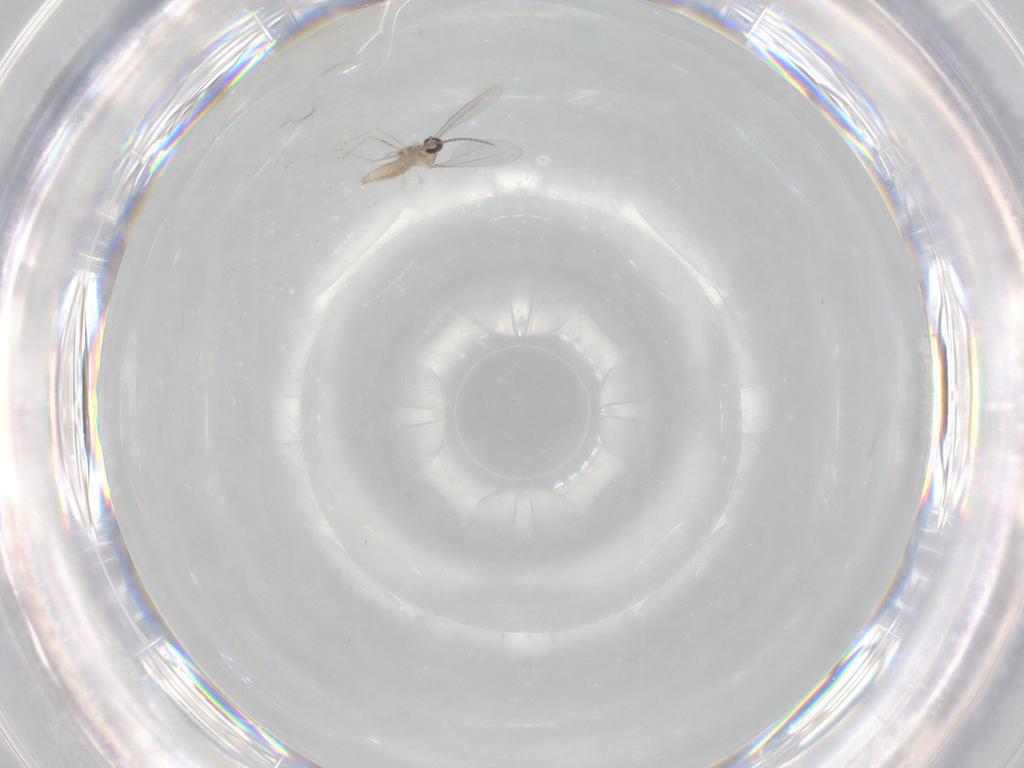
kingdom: Animalia
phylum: Arthropoda
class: Insecta
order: Diptera
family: Cecidomyiidae
